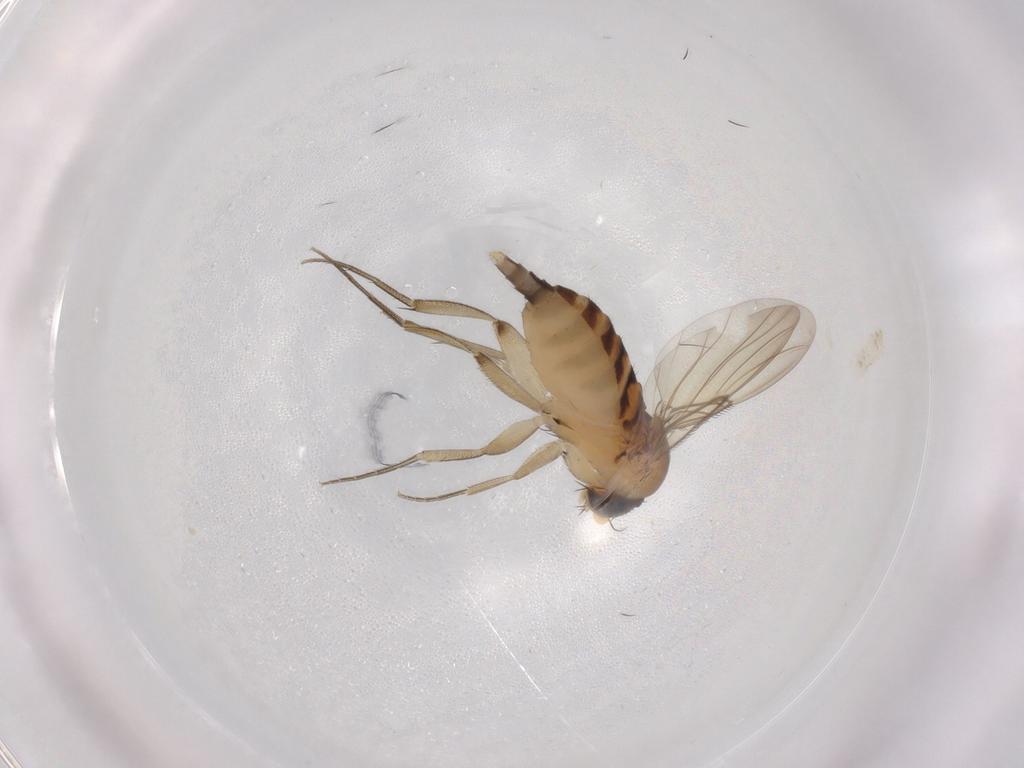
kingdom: Animalia
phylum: Arthropoda
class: Insecta
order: Diptera
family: Phoridae
